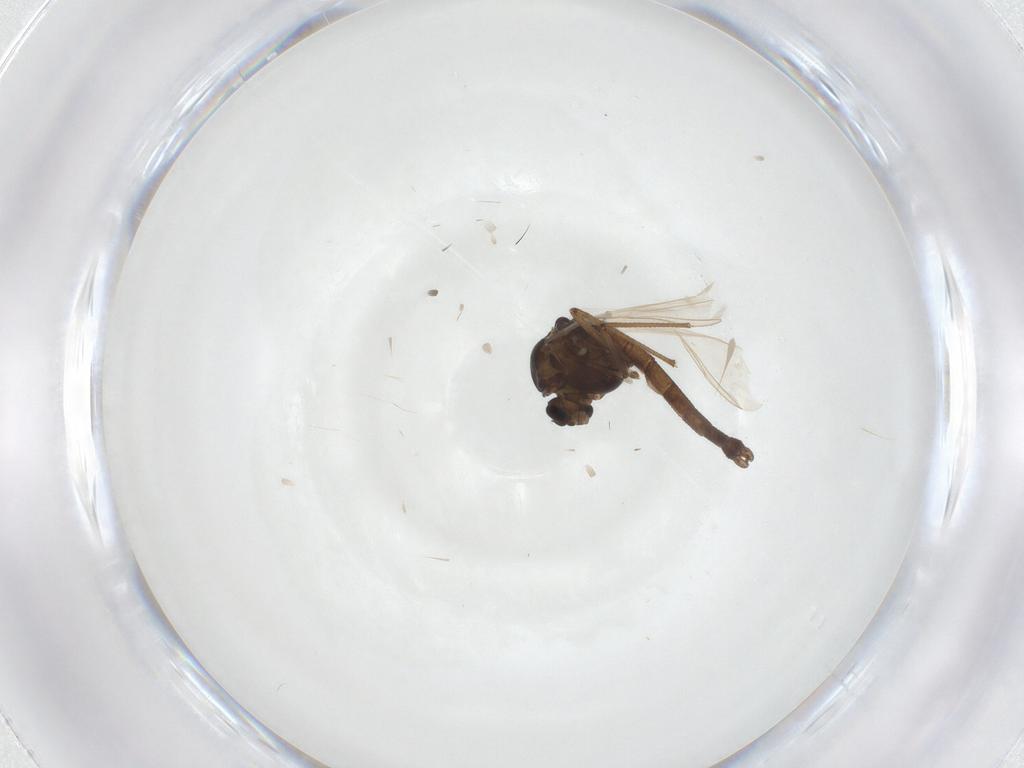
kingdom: Animalia
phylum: Arthropoda
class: Insecta
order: Diptera
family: Chironomidae
